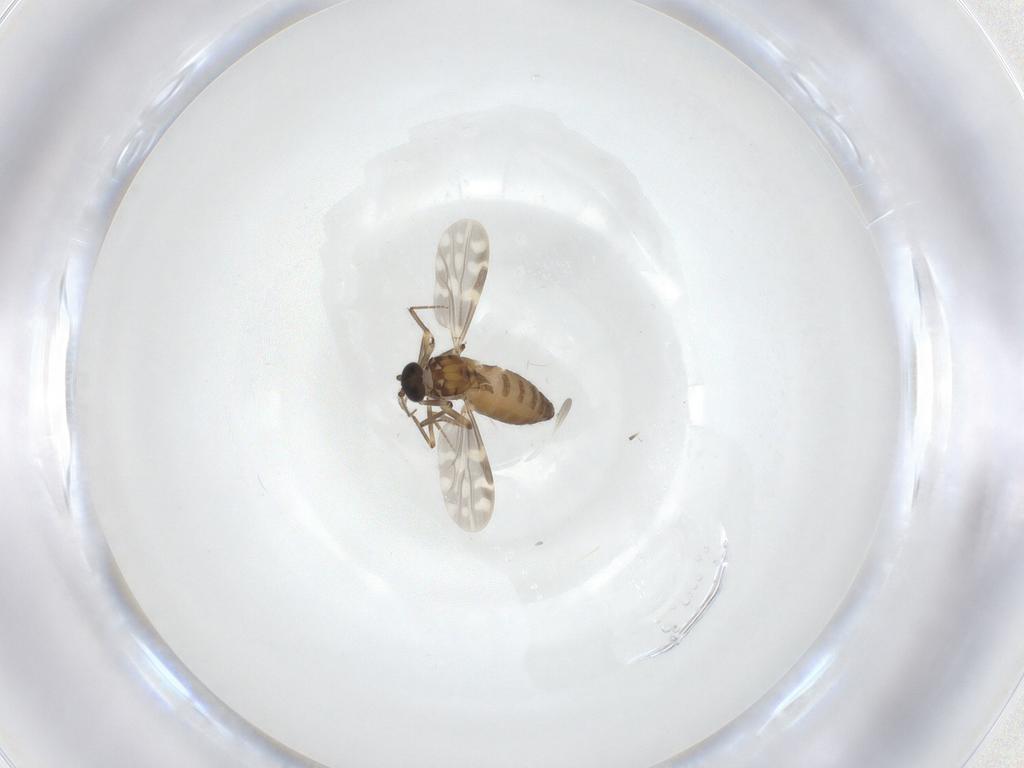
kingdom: Animalia
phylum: Arthropoda
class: Insecta
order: Diptera
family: Ceratopogonidae
